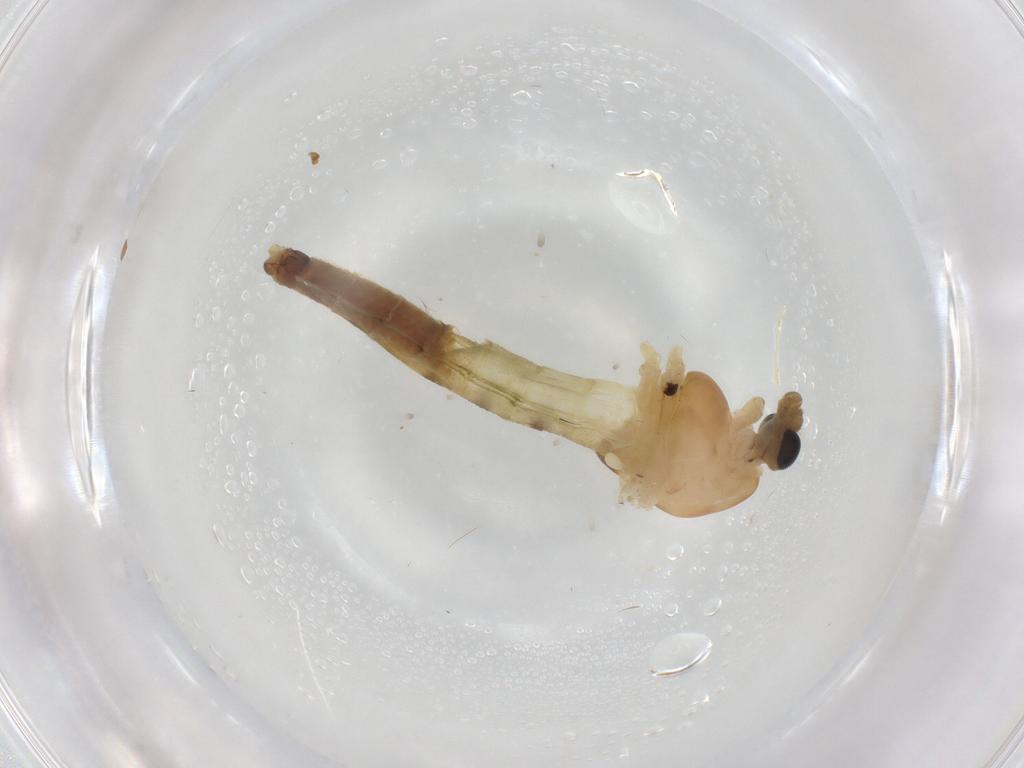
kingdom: Animalia
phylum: Arthropoda
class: Insecta
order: Diptera
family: Muscidae
